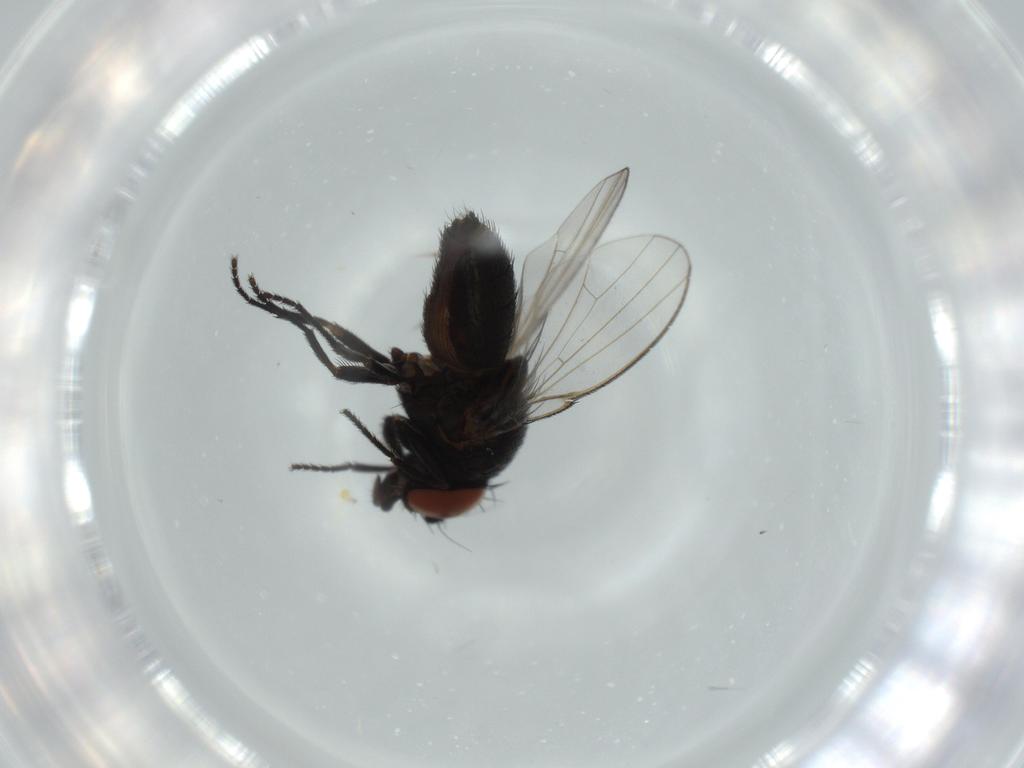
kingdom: Animalia
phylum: Arthropoda
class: Insecta
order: Diptera
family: Milichiidae
